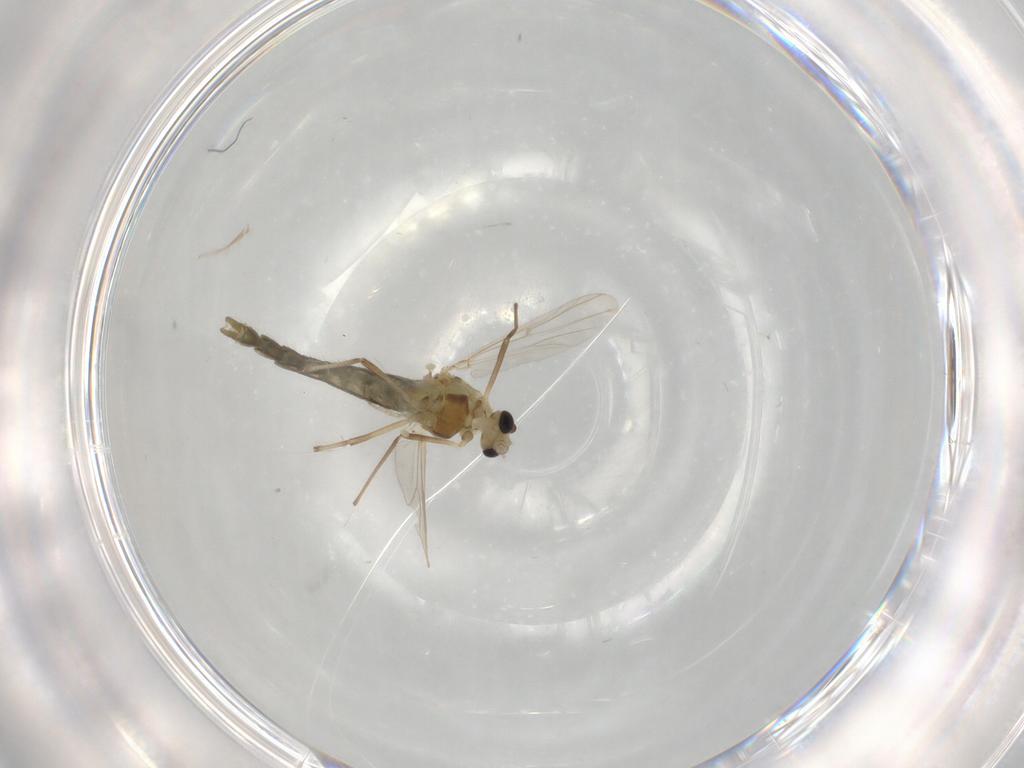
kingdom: Animalia
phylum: Arthropoda
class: Insecta
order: Diptera
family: Chironomidae
